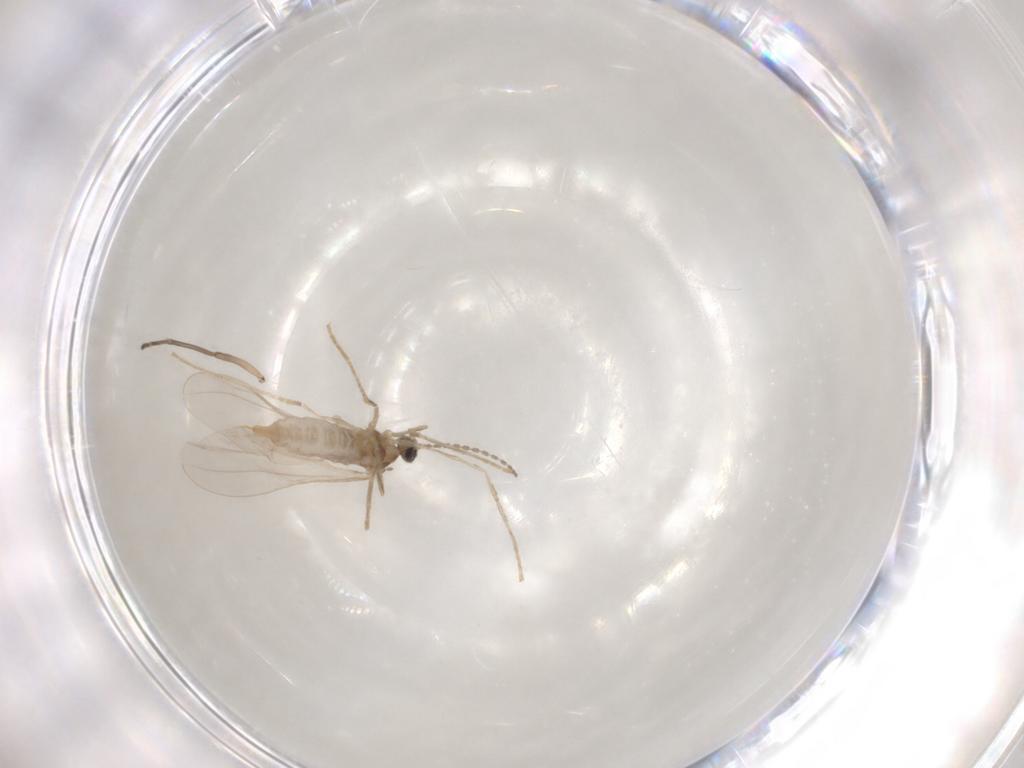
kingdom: Animalia
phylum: Arthropoda
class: Insecta
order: Diptera
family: Cecidomyiidae
